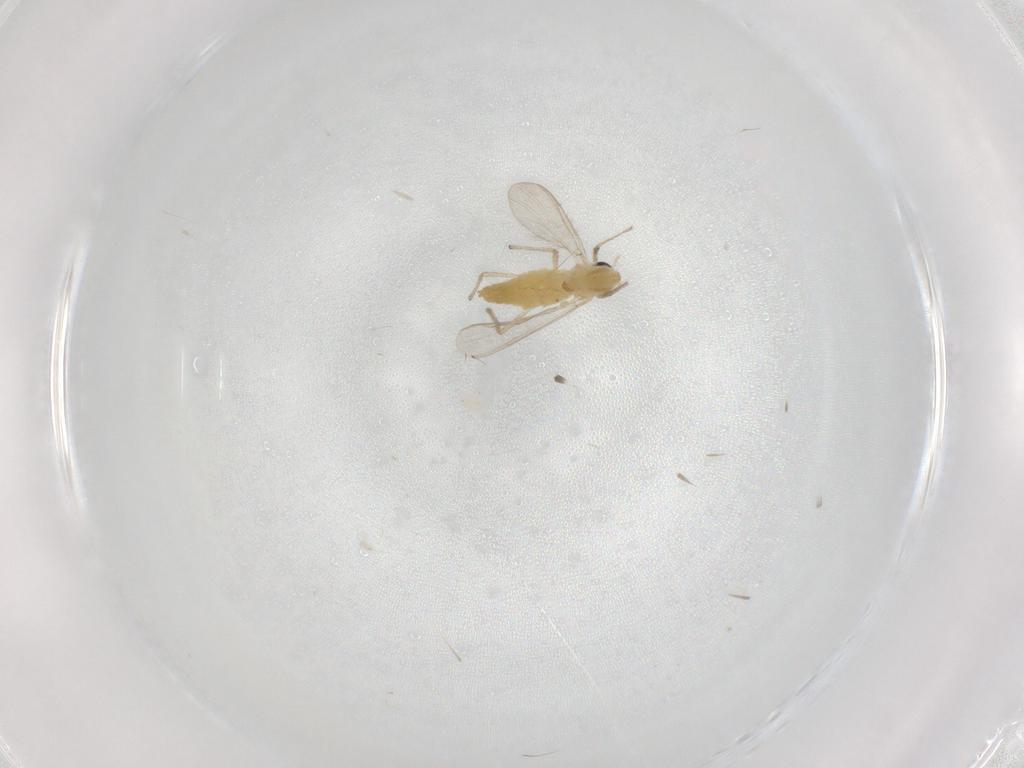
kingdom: Animalia
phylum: Arthropoda
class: Insecta
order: Diptera
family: Chironomidae
